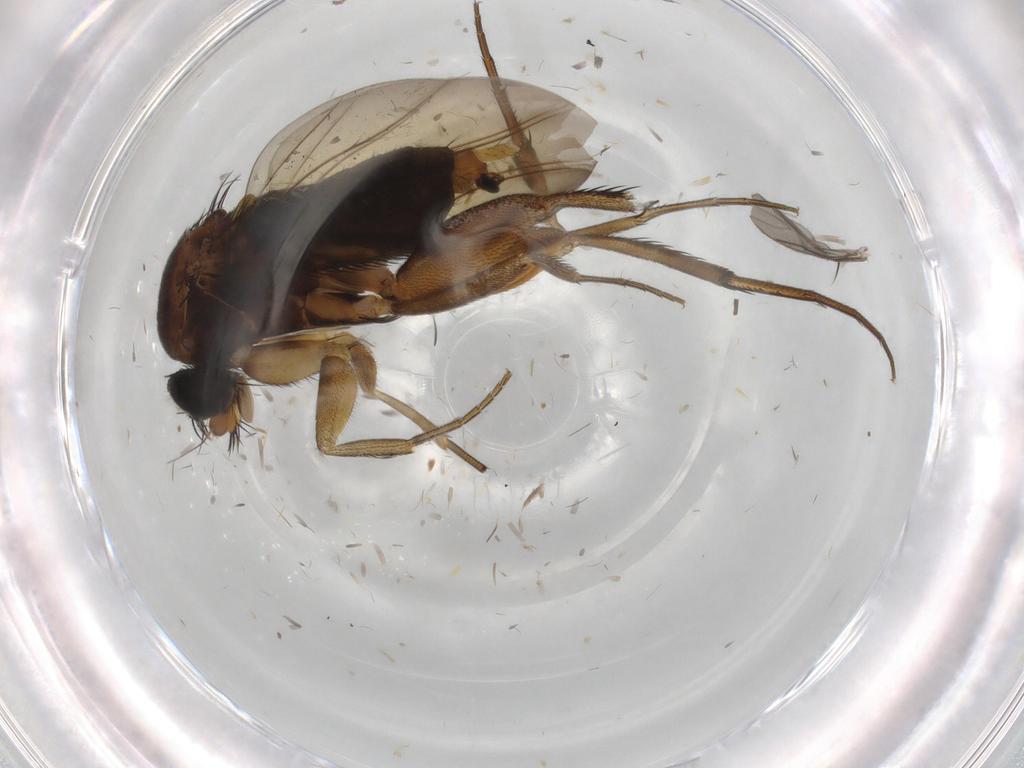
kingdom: Animalia
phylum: Arthropoda
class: Insecta
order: Diptera
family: Phoridae
